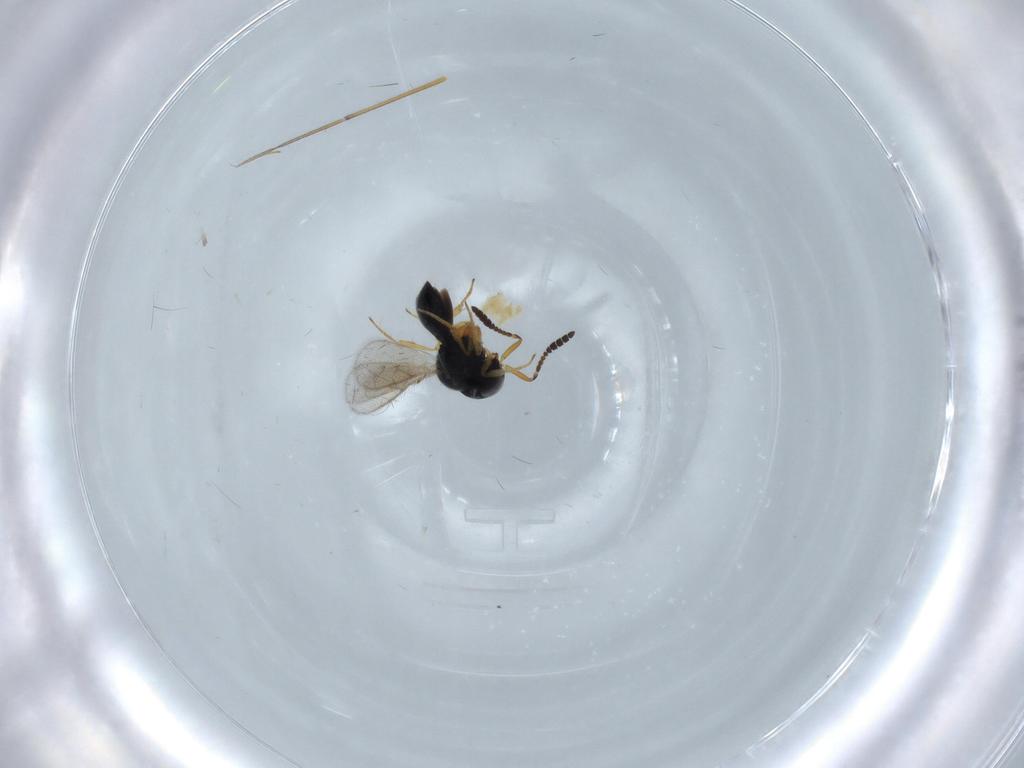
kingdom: Animalia
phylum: Arthropoda
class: Insecta
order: Hymenoptera
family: Scelionidae
